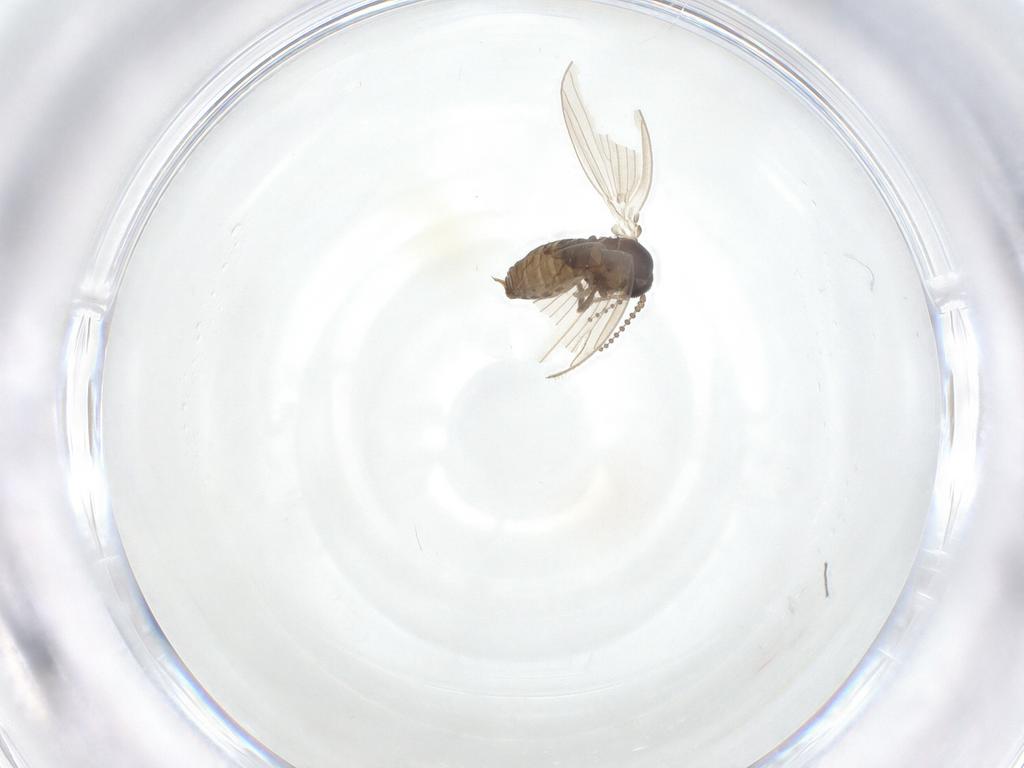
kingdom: Animalia
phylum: Arthropoda
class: Insecta
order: Diptera
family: Psychodidae
